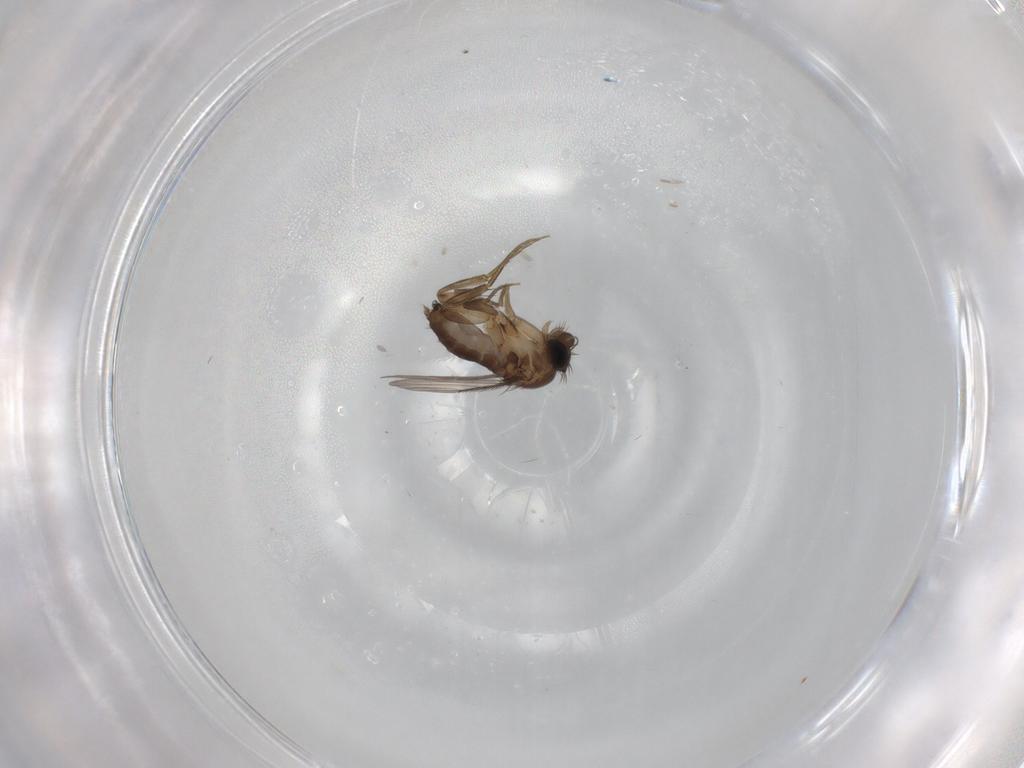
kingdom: Animalia
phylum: Arthropoda
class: Insecta
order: Diptera
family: Phoridae
